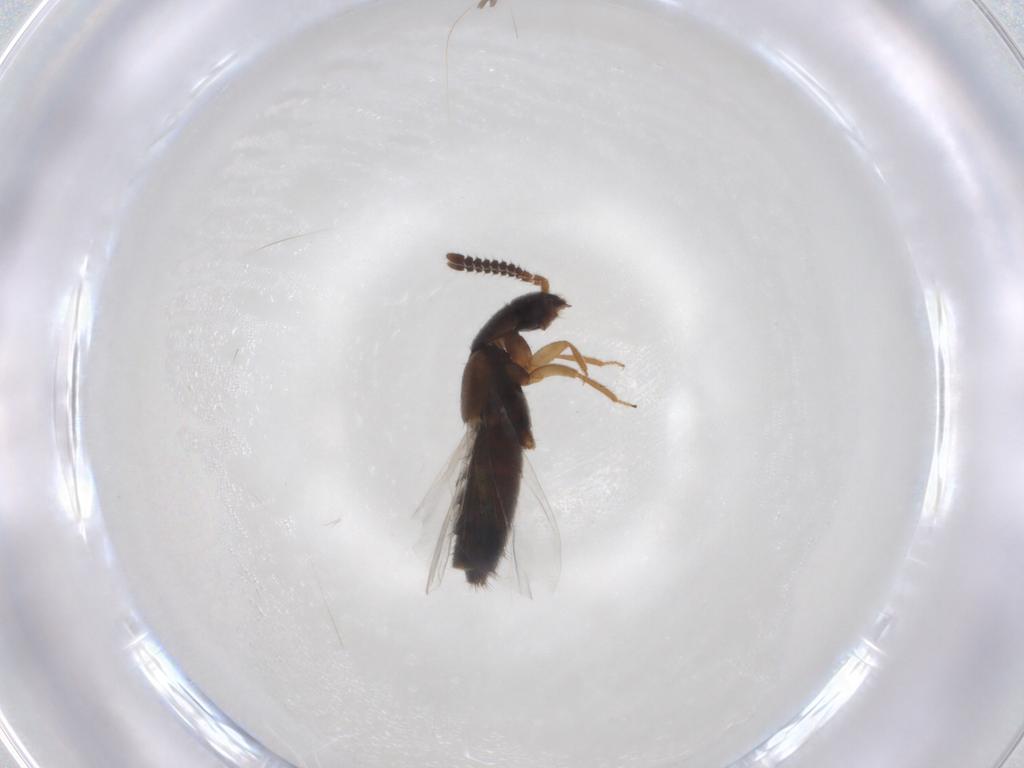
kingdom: Animalia
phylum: Arthropoda
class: Insecta
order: Coleoptera
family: Staphylinidae
